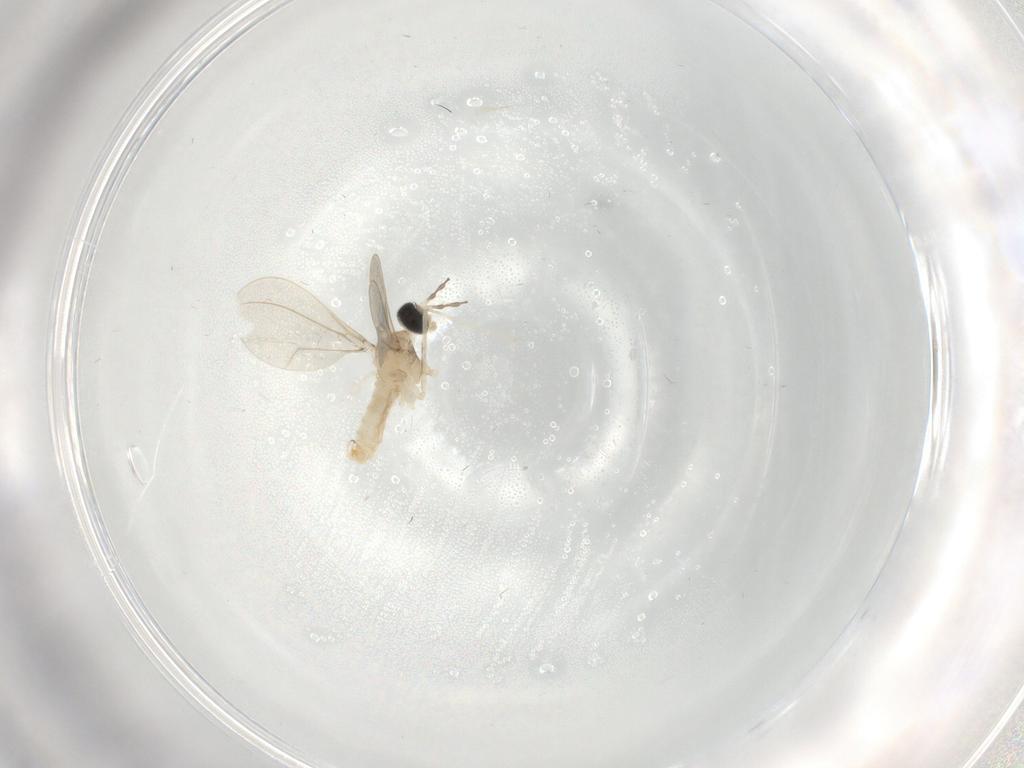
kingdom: Animalia
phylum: Arthropoda
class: Insecta
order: Diptera
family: Cecidomyiidae
